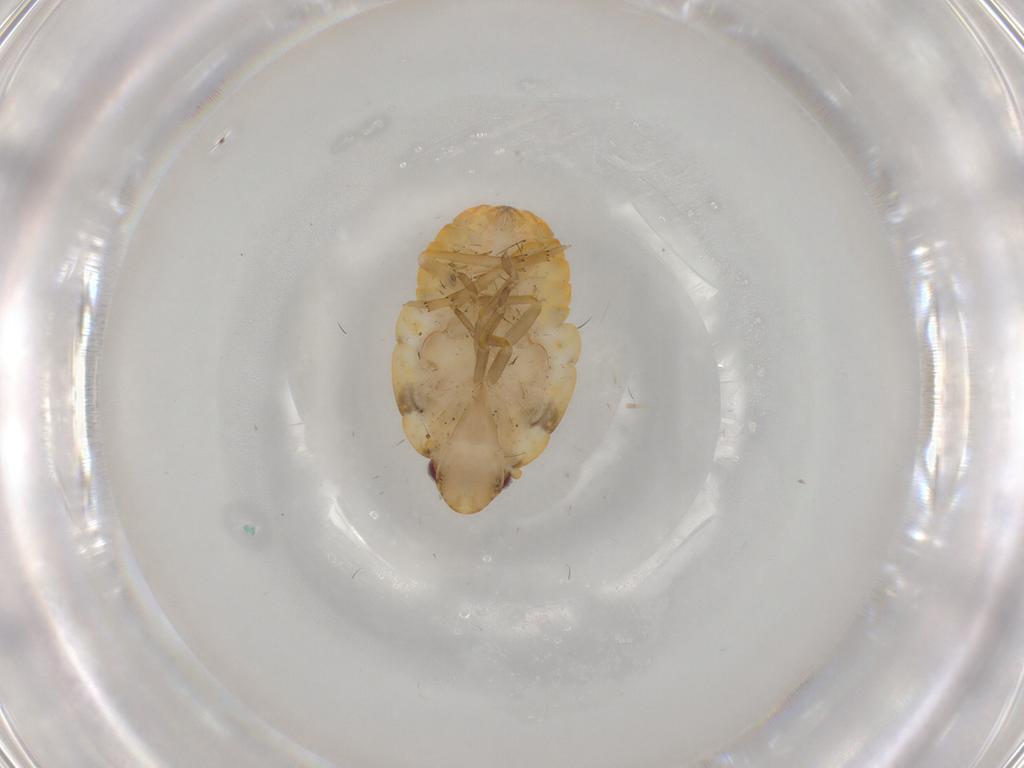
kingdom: Animalia
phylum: Arthropoda
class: Insecta
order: Hemiptera
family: Flatidae
